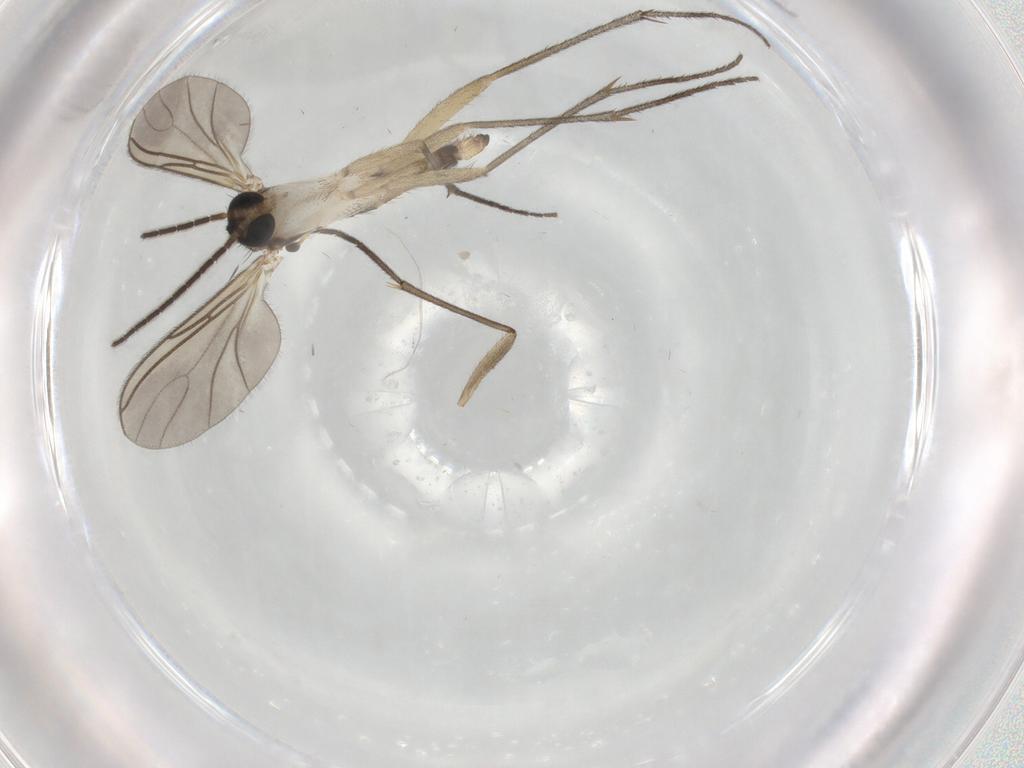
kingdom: Animalia
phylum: Arthropoda
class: Insecta
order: Diptera
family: Sciaridae
